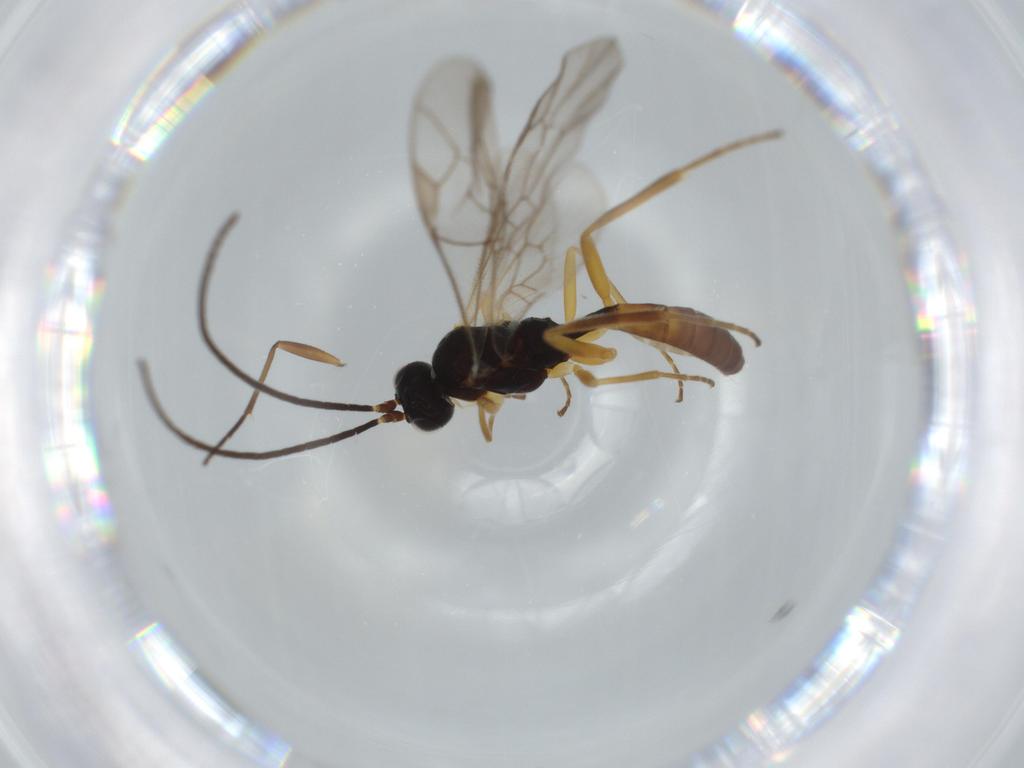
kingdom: Animalia
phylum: Arthropoda
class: Insecta
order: Hymenoptera
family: Ichneumonidae
